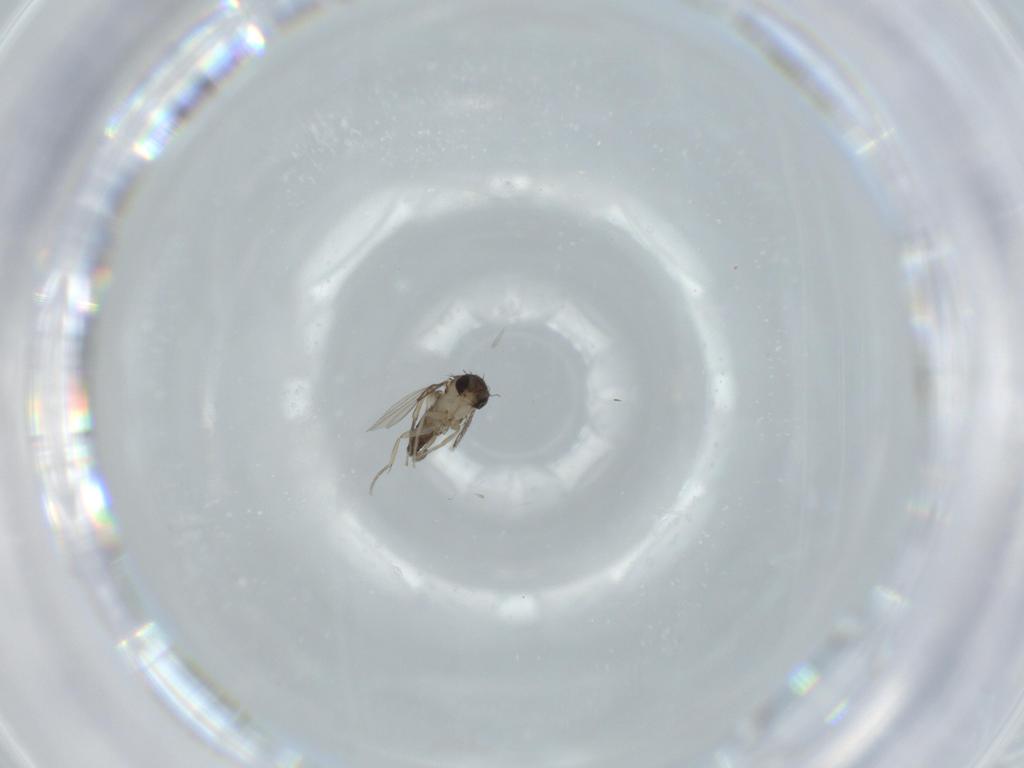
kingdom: Animalia
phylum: Arthropoda
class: Insecta
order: Diptera
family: Phoridae
